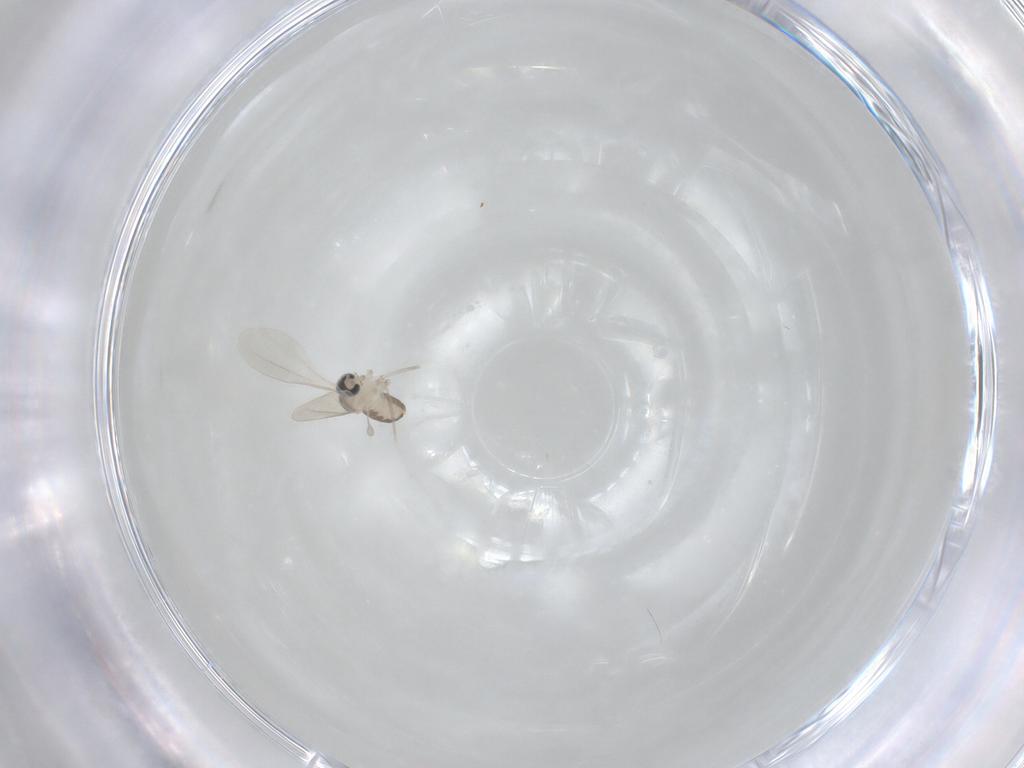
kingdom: Animalia
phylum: Arthropoda
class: Insecta
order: Diptera
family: Cecidomyiidae
